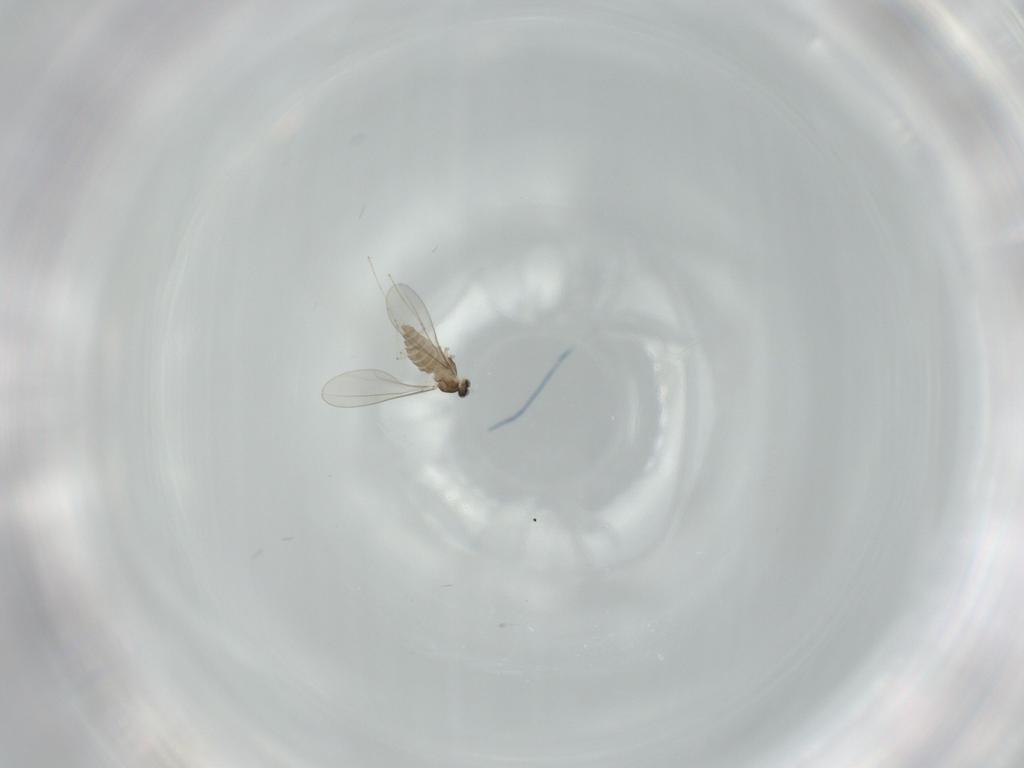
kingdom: Animalia
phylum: Arthropoda
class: Insecta
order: Diptera
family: Cecidomyiidae
